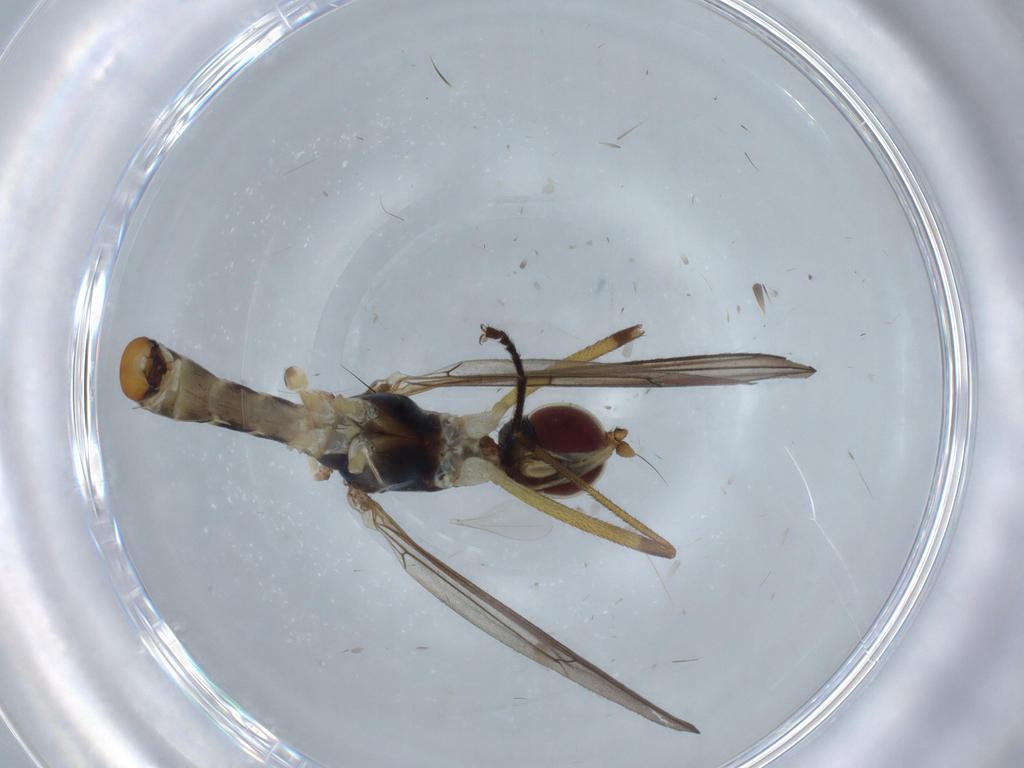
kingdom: Animalia
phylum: Arthropoda
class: Insecta
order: Diptera
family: Micropezidae
